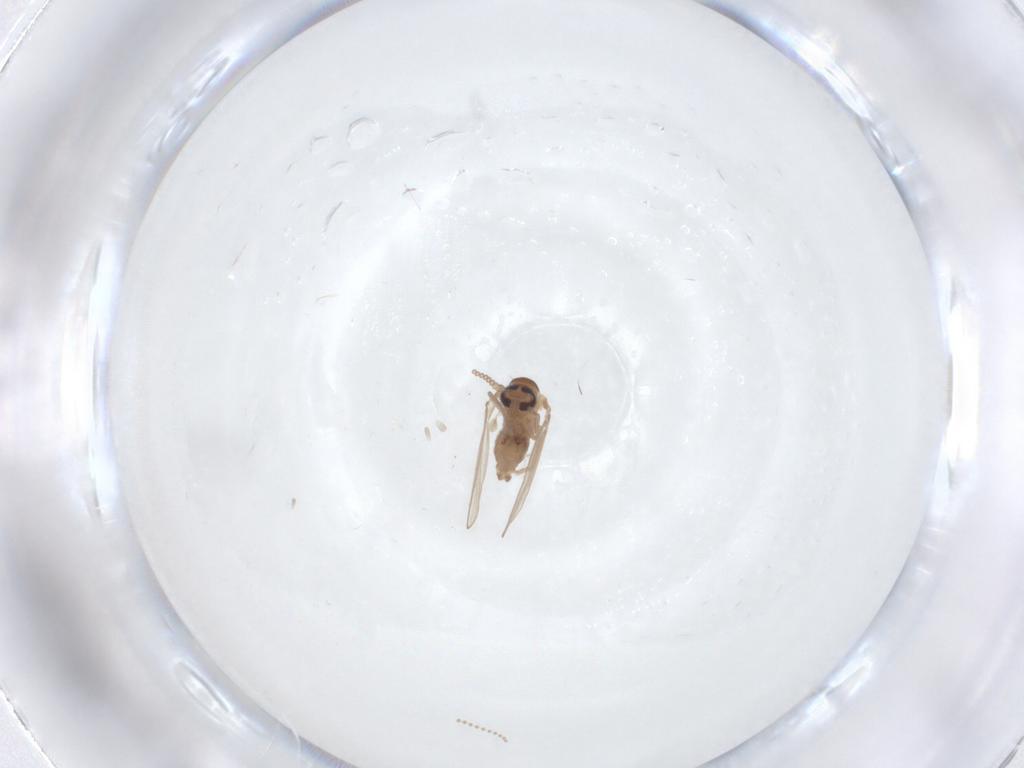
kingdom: Animalia
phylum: Arthropoda
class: Insecta
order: Diptera
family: Psychodidae
